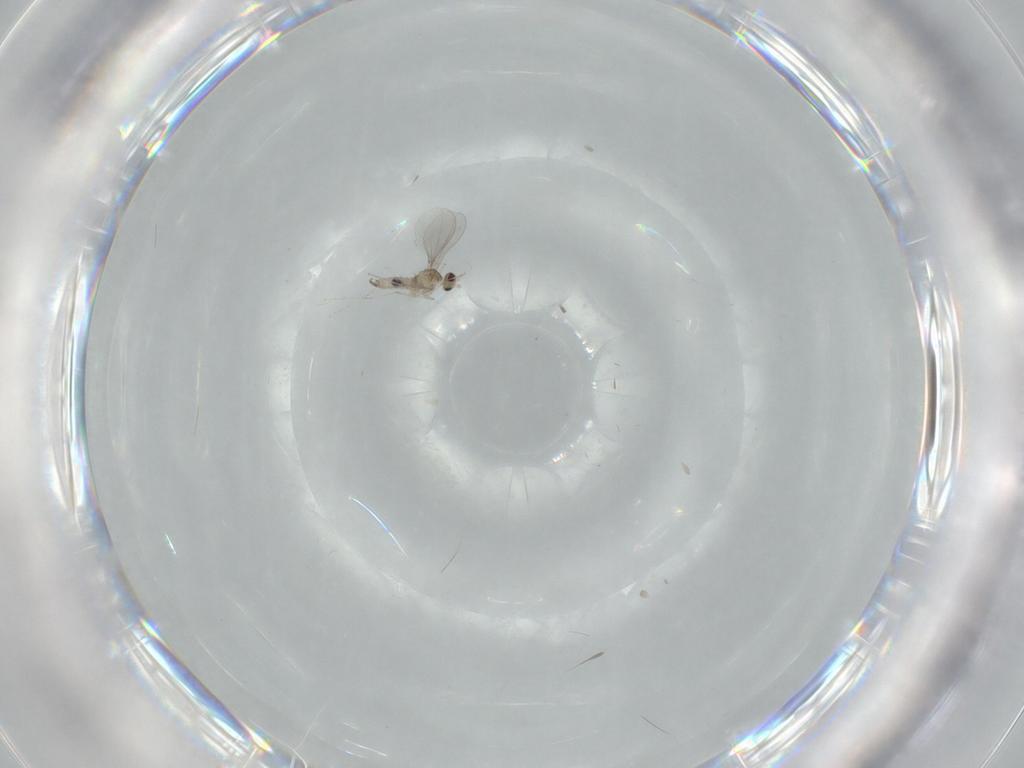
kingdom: Animalia
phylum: Arthropoda
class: Insecta
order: Diptera
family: Cecidomyiidae
